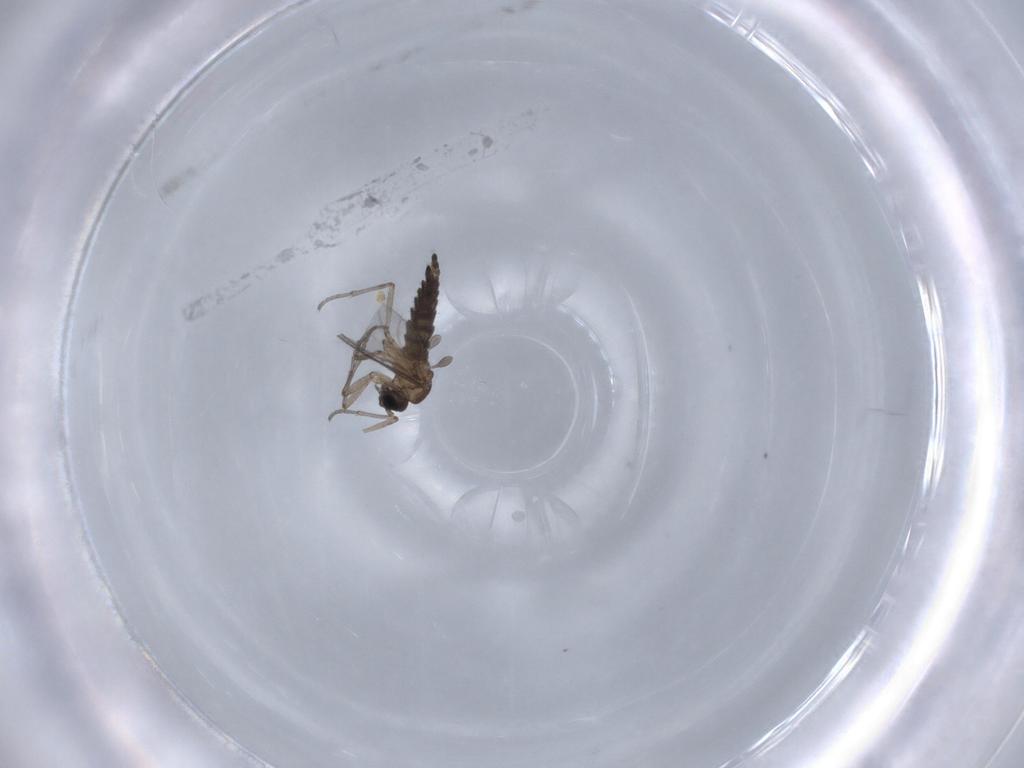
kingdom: Animalia
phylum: Arthropoda
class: Insecta
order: Diptera
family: Sciaridae
